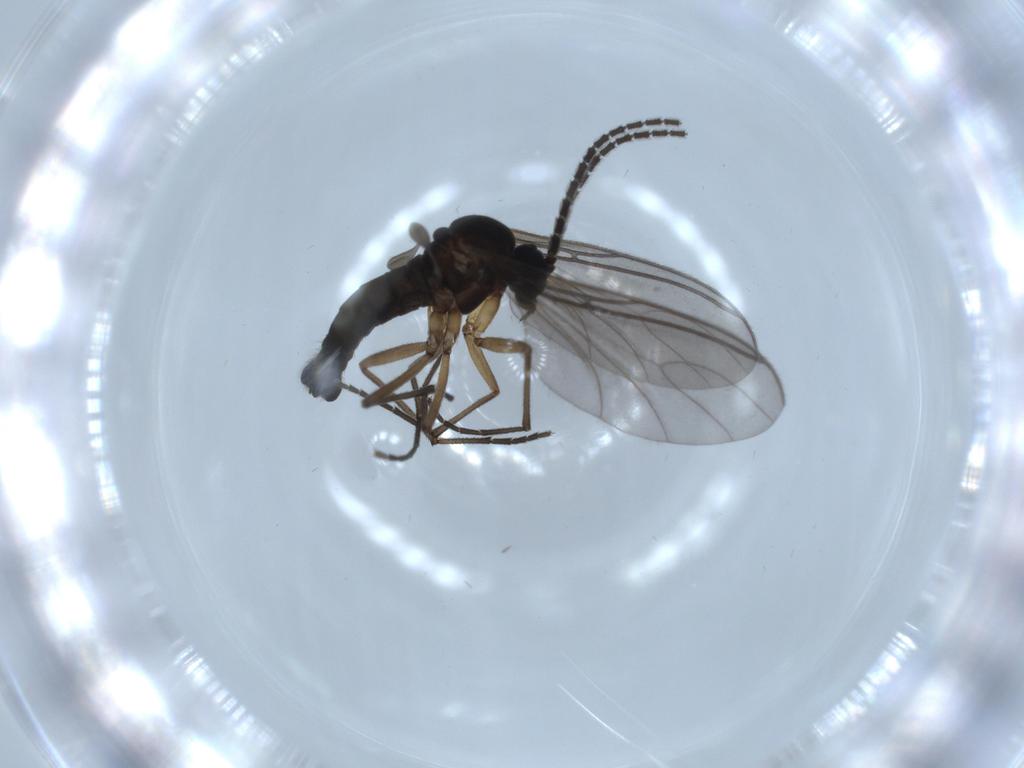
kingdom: Animalia
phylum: Arthropoda
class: Insecta
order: Diptera
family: Sciaridae
